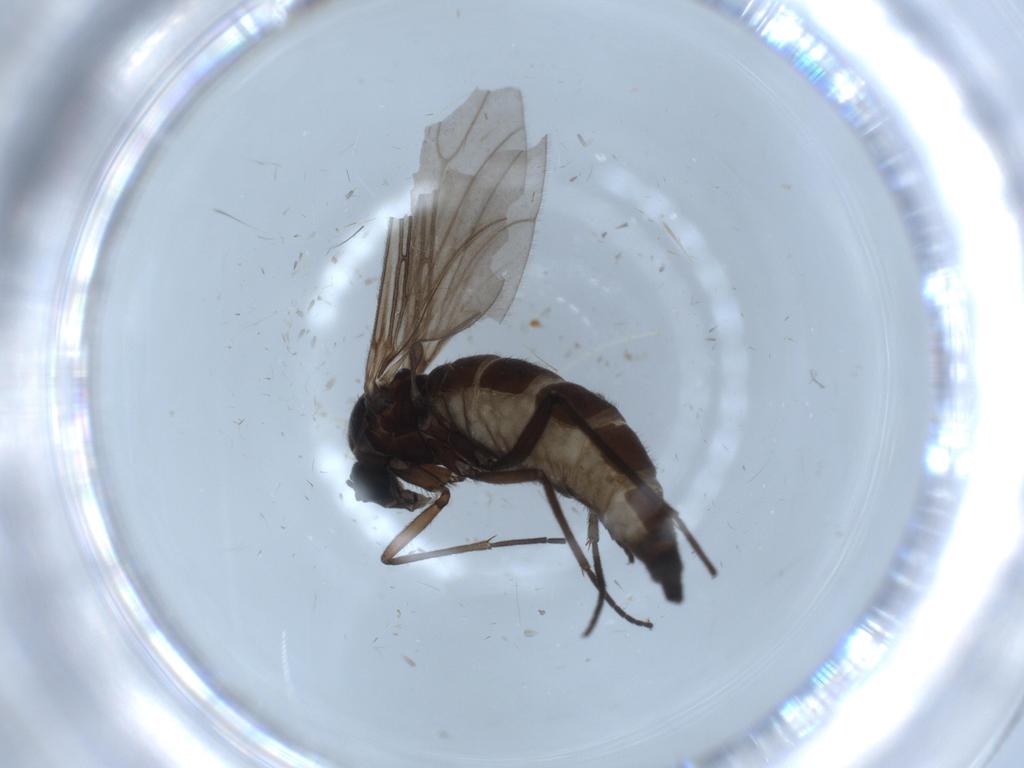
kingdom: Animalia
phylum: Arthropoda
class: Insecta
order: Diptera
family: Sciaridae
